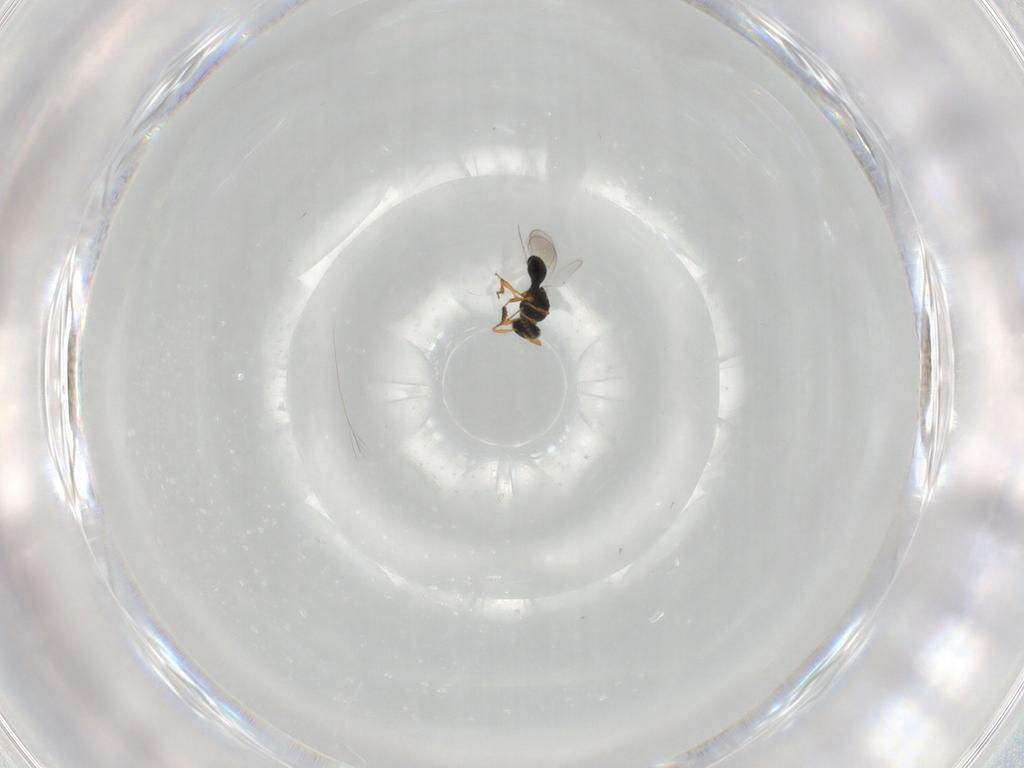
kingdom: Animalia
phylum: Arthropoda
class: Insecta
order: Hymenoptera
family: Platygastridae
